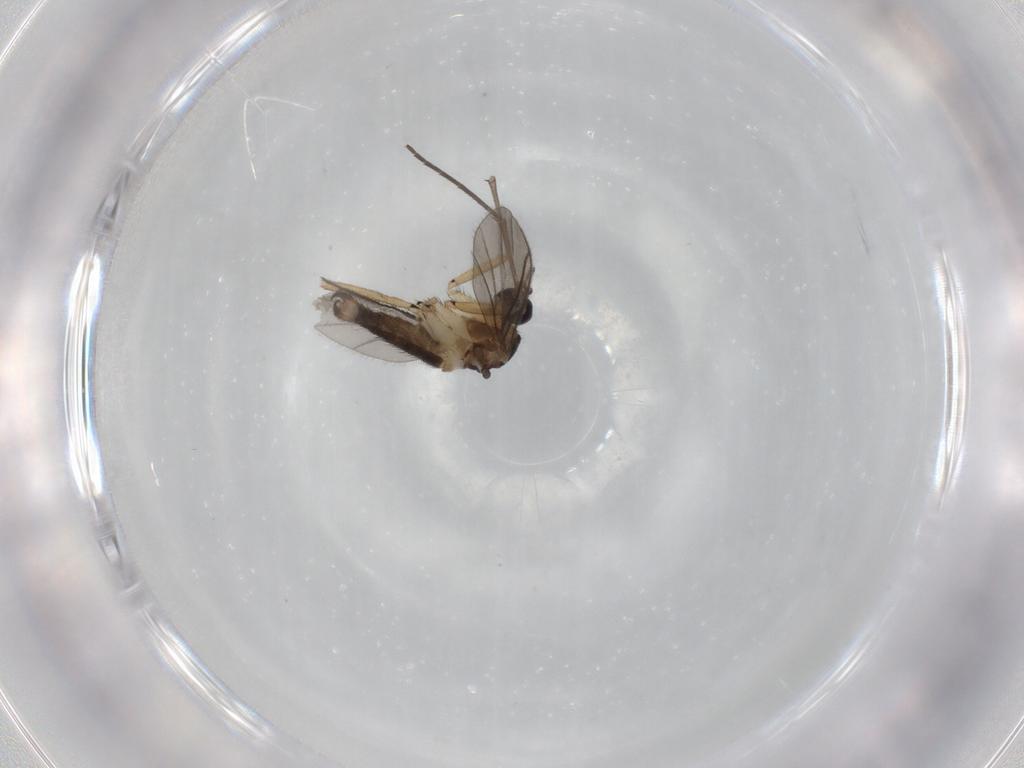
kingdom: Animalia
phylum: Arthropoda
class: Insecta
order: Diptera
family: Sciaridae
